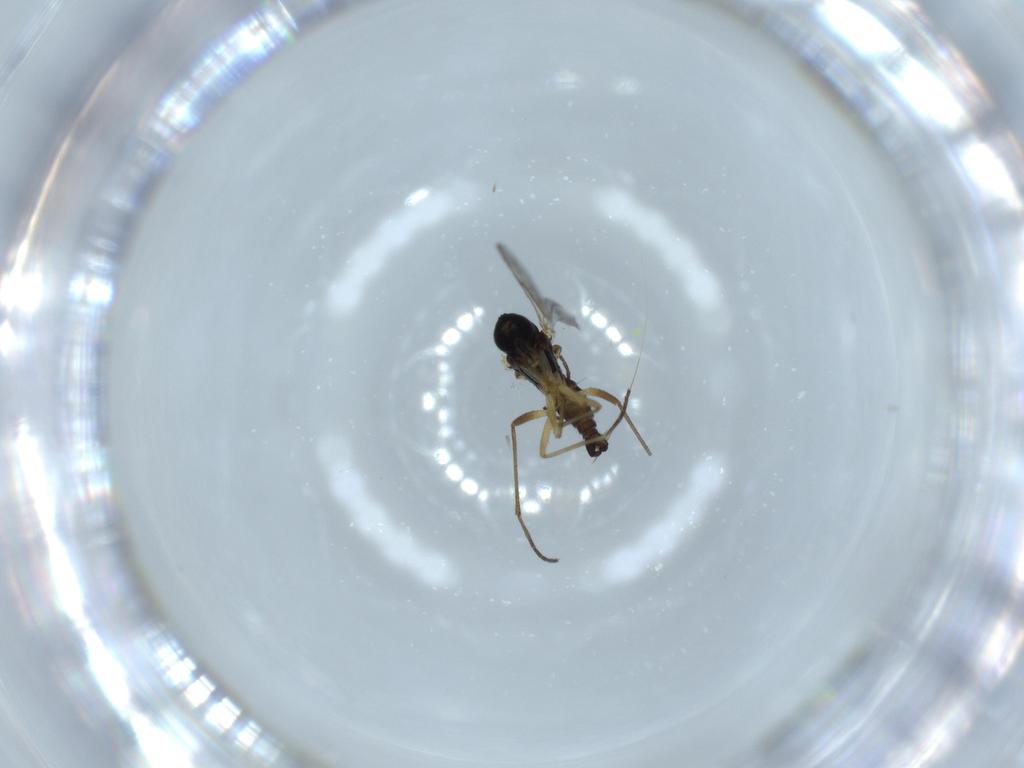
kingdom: Animalia
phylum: Arthropoda
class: Insecta
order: Diptera
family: Sciaridae
